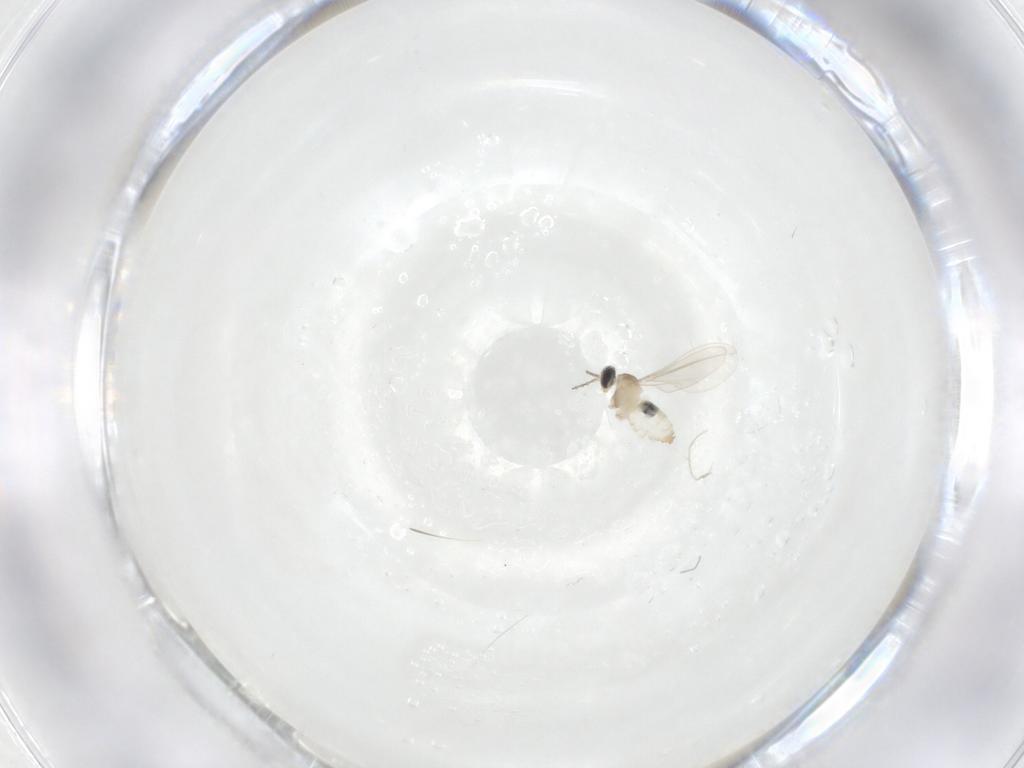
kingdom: Animalia
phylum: Arthropoda
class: Insecta
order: Diptera
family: Cecidomyiidae
